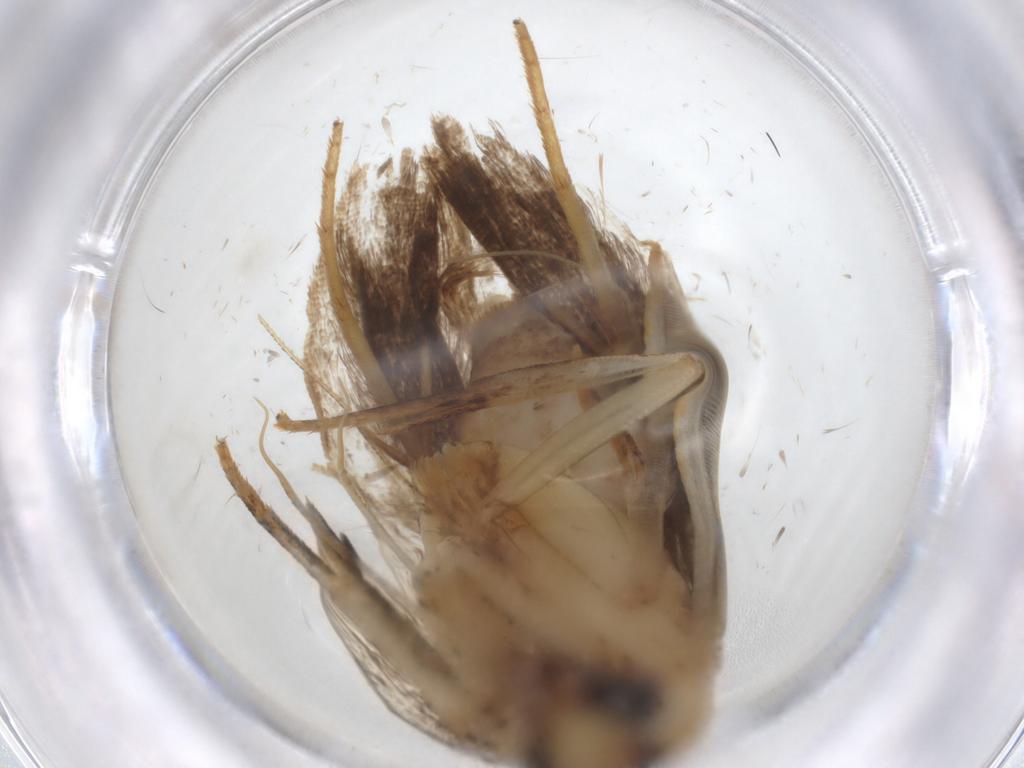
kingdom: Animalia
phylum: Arthropoda
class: Insecta
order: Lepidoptera
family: Gelechiidae
